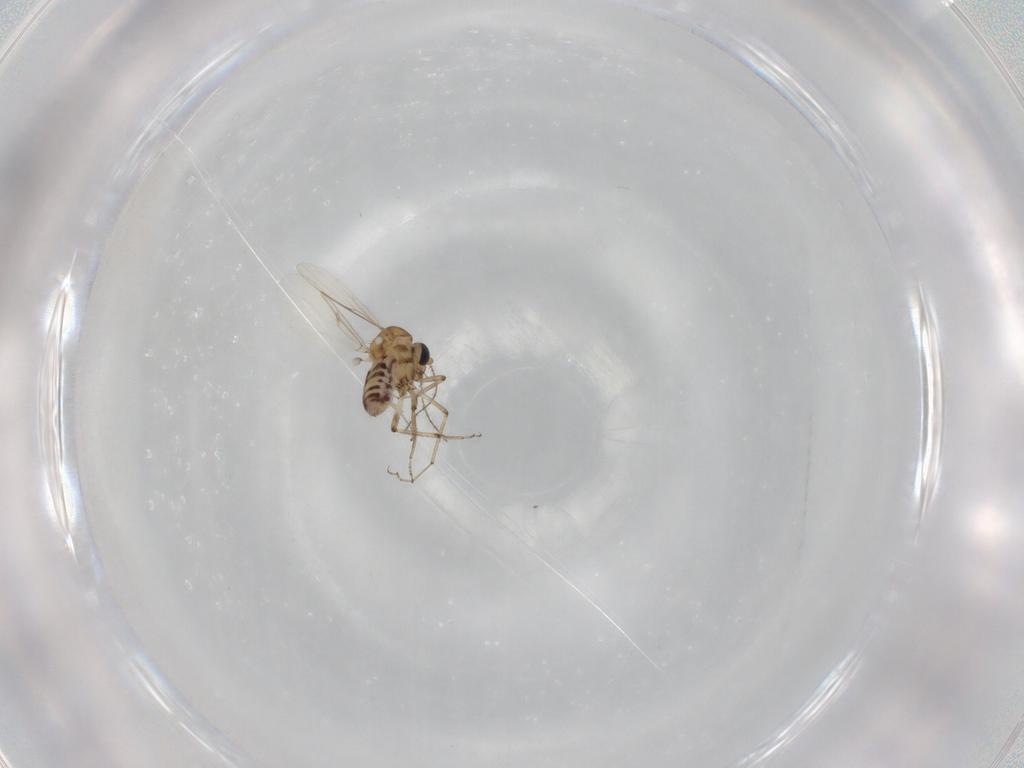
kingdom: Animalia
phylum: Arthropoda
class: Insecta
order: Diptera
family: Ceratopogonidae
